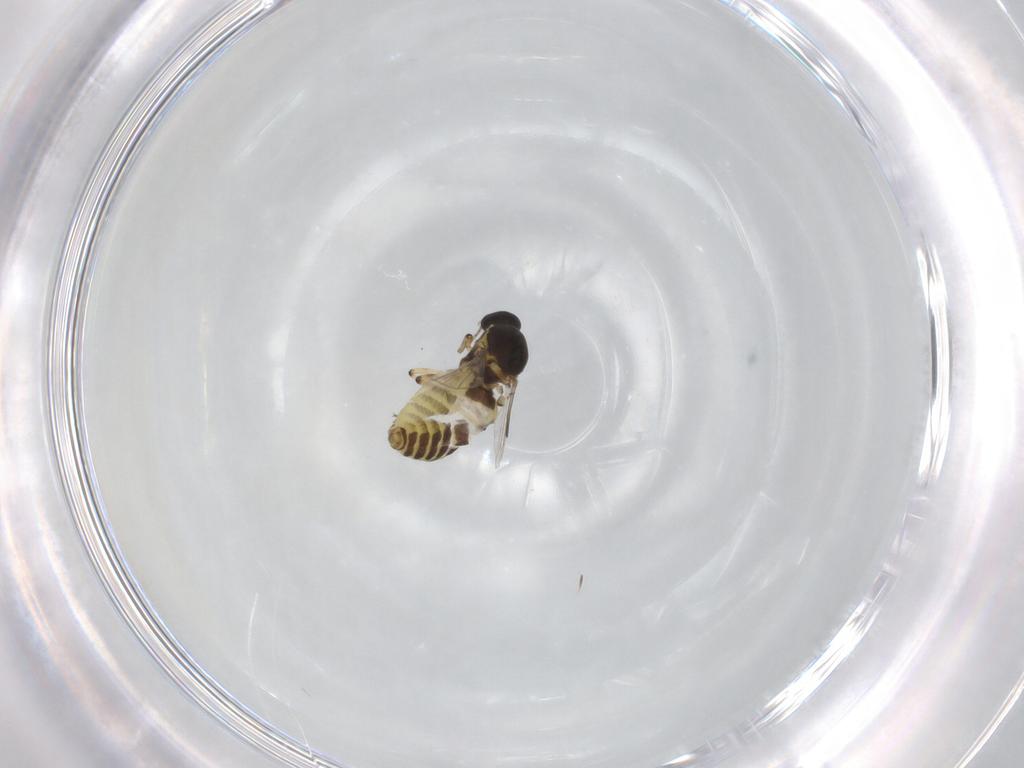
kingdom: Animalia
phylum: Arthropoda
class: Insecta
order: Diptera
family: Ceratopogonidae
